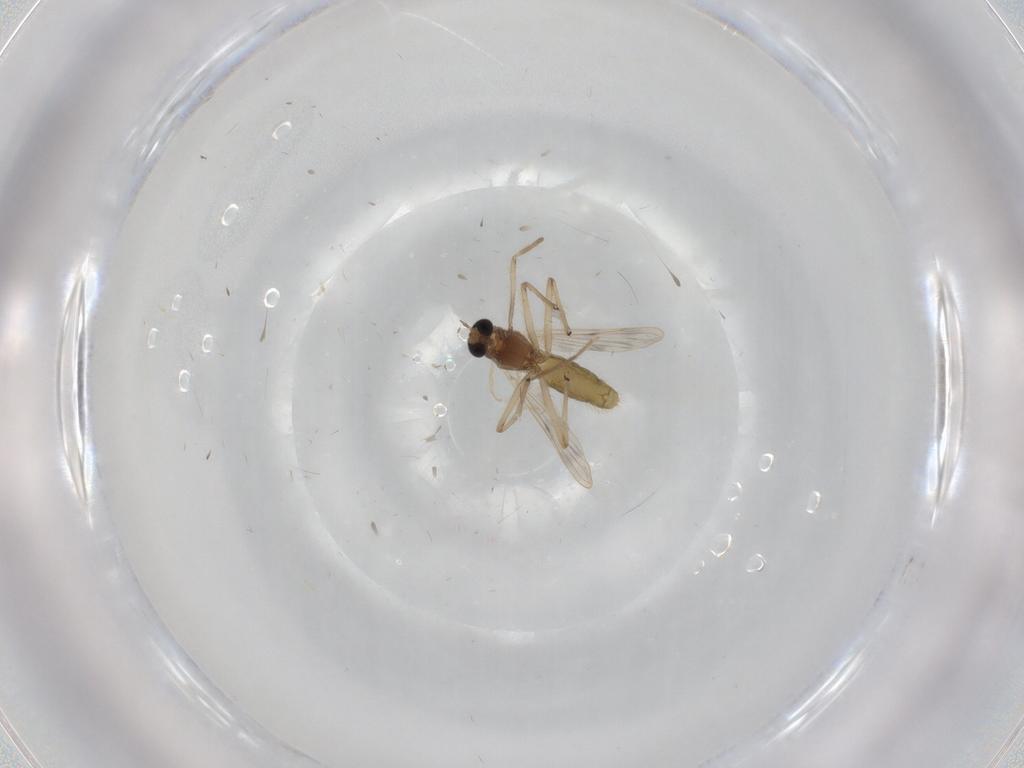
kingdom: Animalia
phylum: Arthropoda
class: Insecta
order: Diptera
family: Chironomidae
